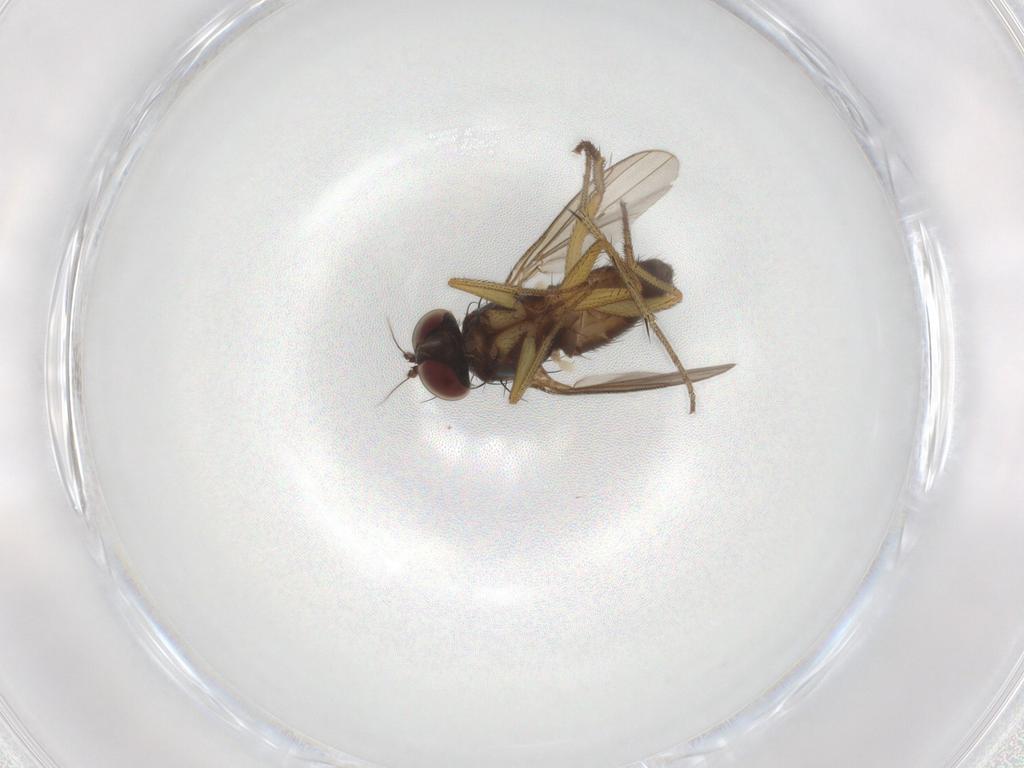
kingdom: Animalia
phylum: Arthropoda
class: Insecta
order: Diptera
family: Dolichopodidae
